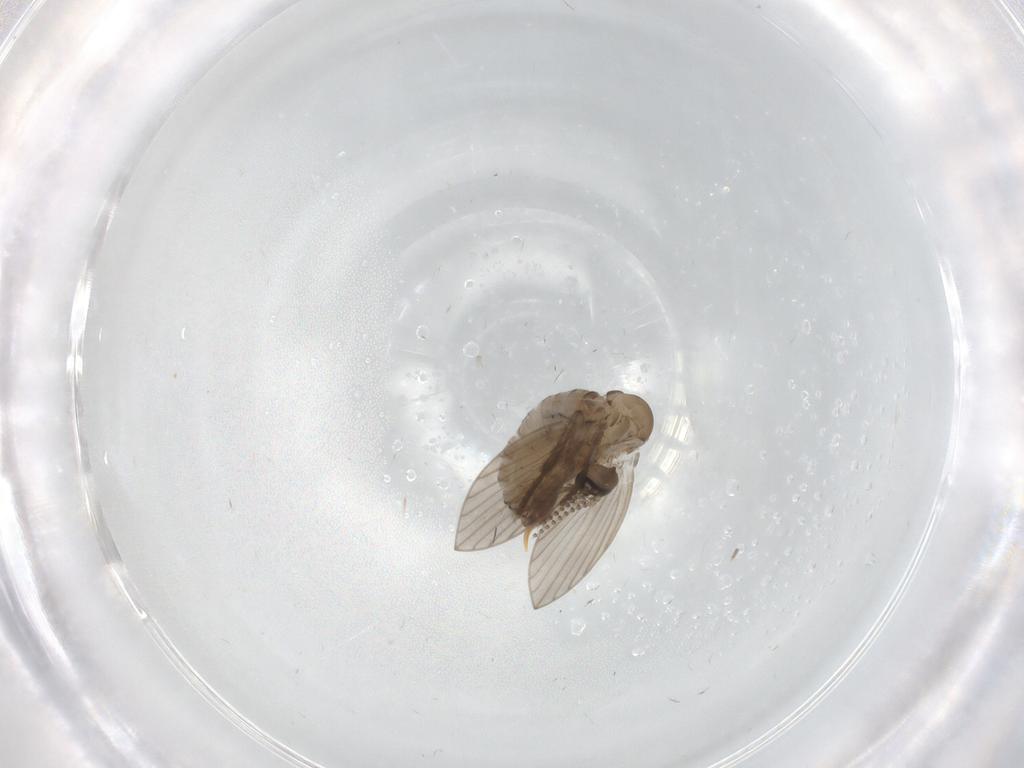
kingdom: Animalia
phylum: Arthropoda
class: Insecta
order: Diptera
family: Psychodidae
